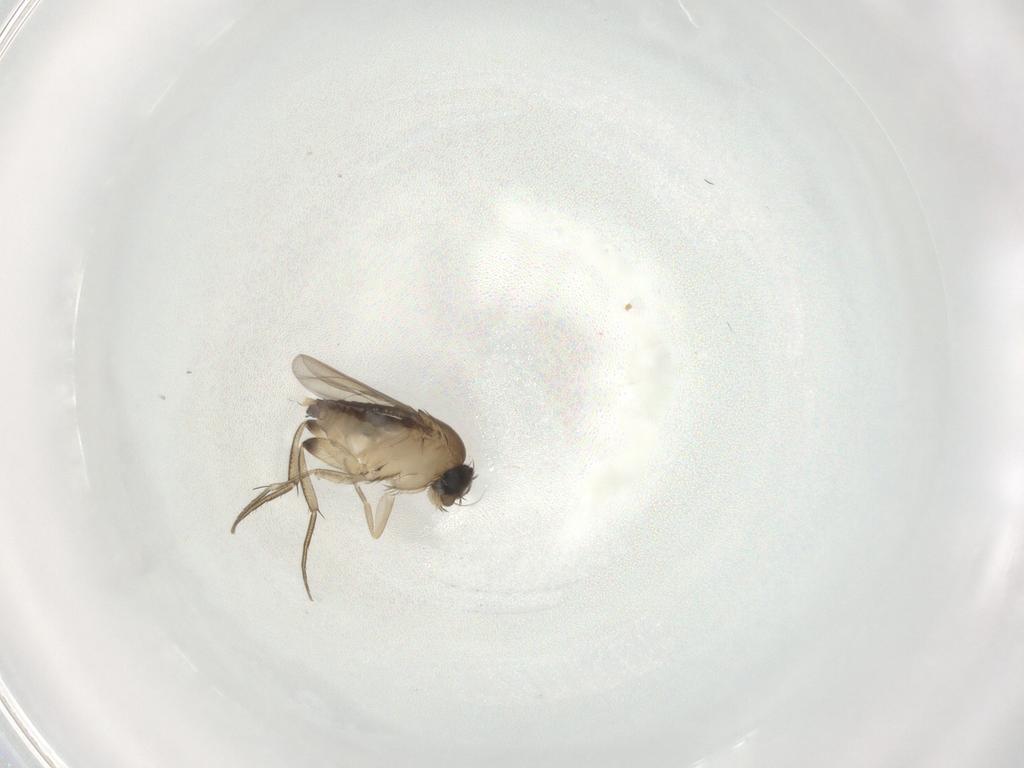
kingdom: Animalia
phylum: Arthropoda
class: Insecta
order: Diptera
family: Phoridae
